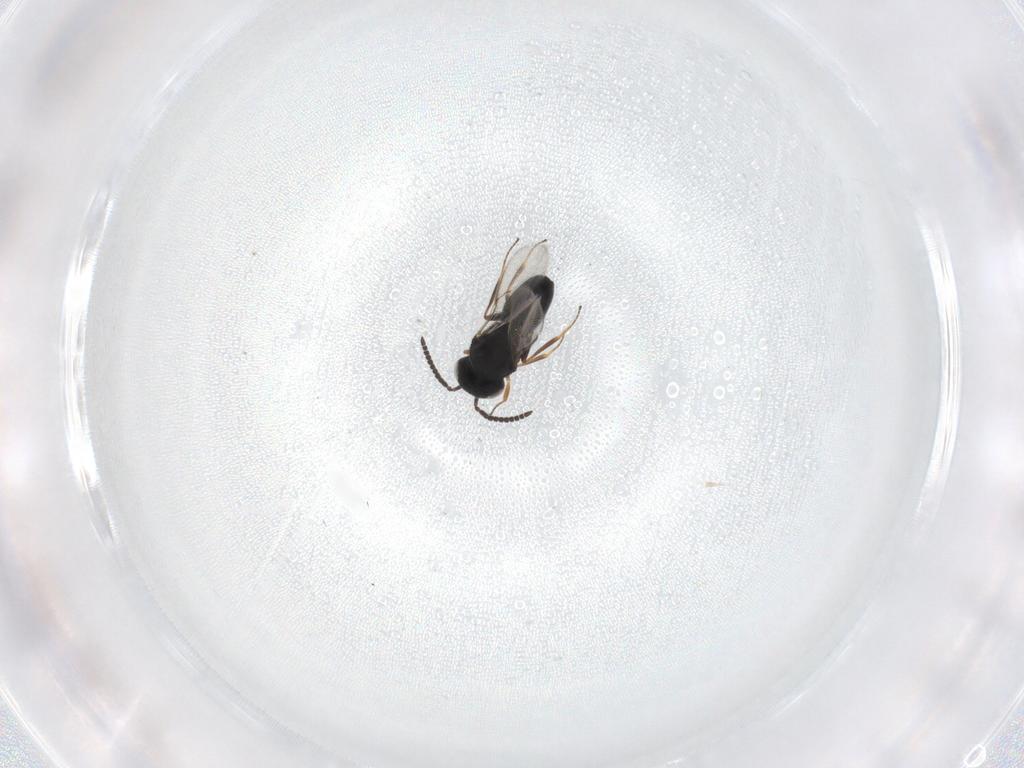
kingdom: Animalia
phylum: Arthropoda
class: Insecta
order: Hymenoptera
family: Scelionidae
